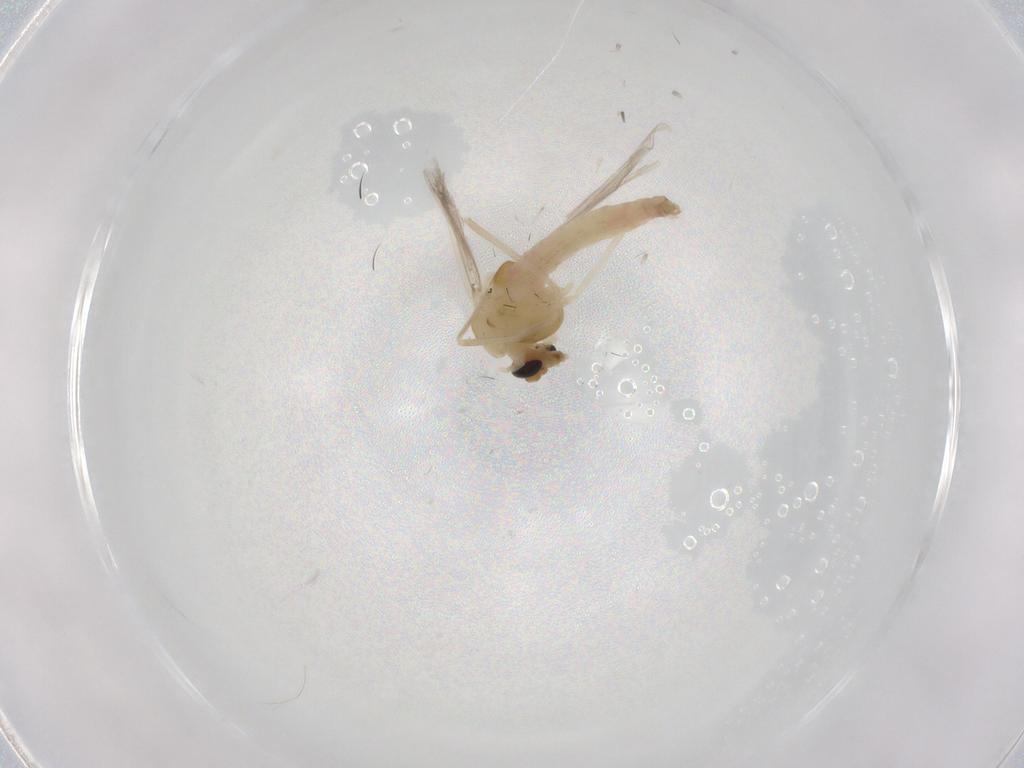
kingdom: Animalia
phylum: Arthropoda
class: Insecta
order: Diptera
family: Chironomidae
